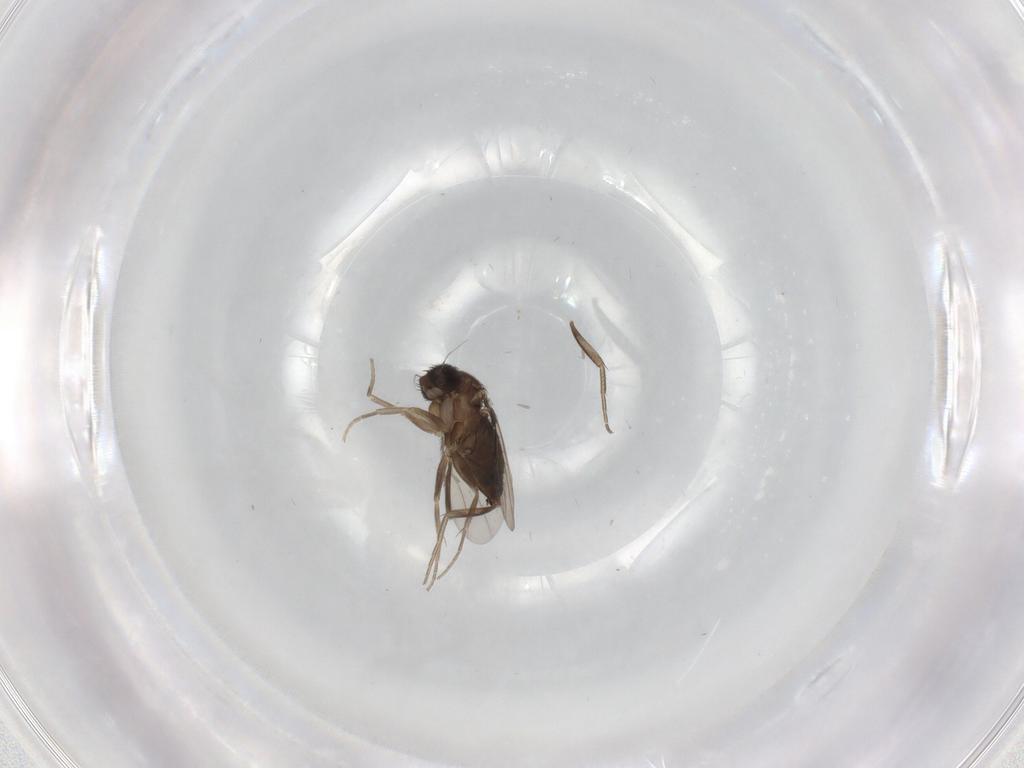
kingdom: Animalia
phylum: Arthropoda
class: Insecta
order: Diptera
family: Phoridae
